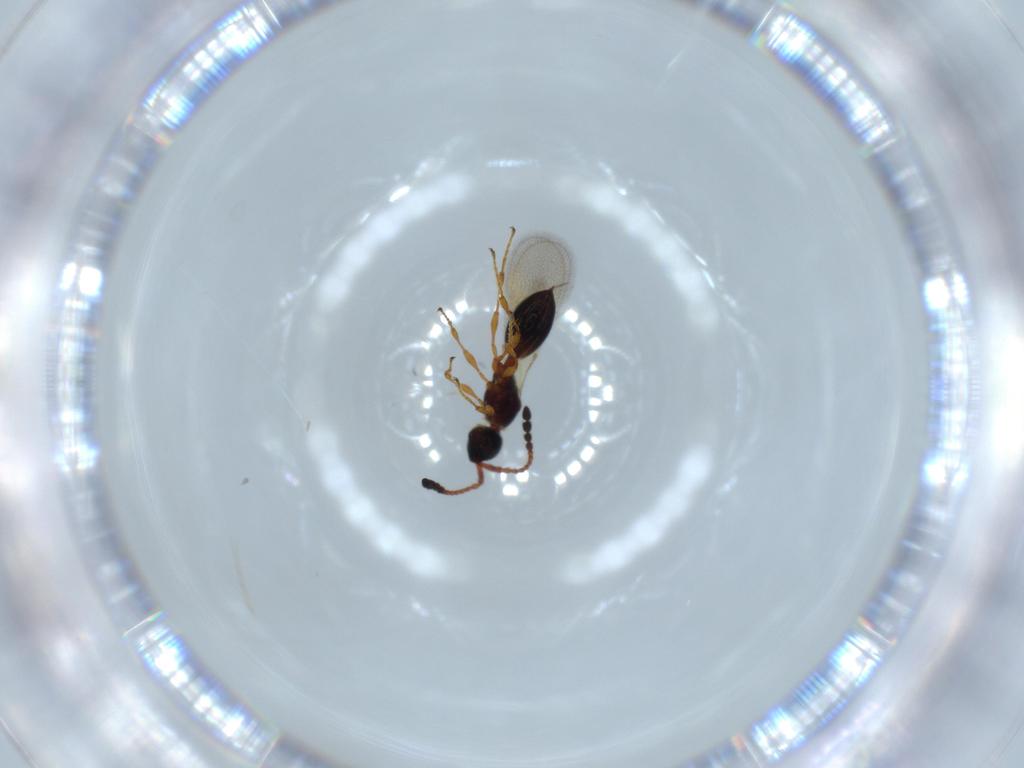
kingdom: Animalia
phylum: Arthropoda
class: Insecta
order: Hymenoptera
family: Diapriidae
